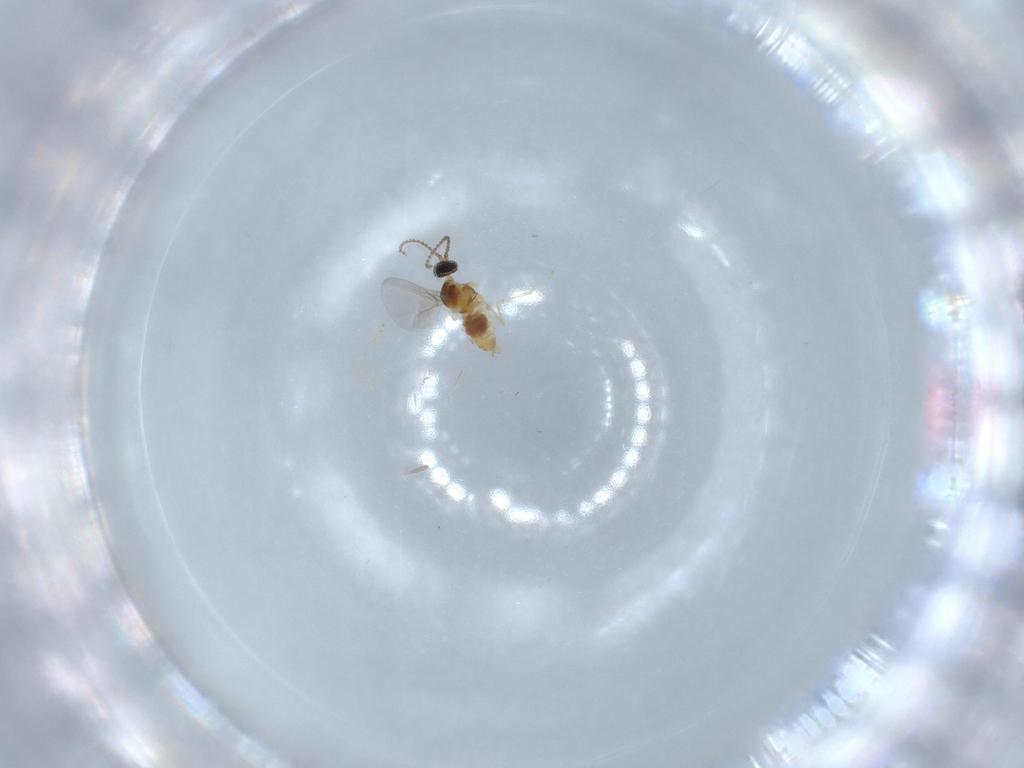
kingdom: Animalia
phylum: Arthropoda
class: Insecta
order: Diptera
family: Cecidomyiidae
